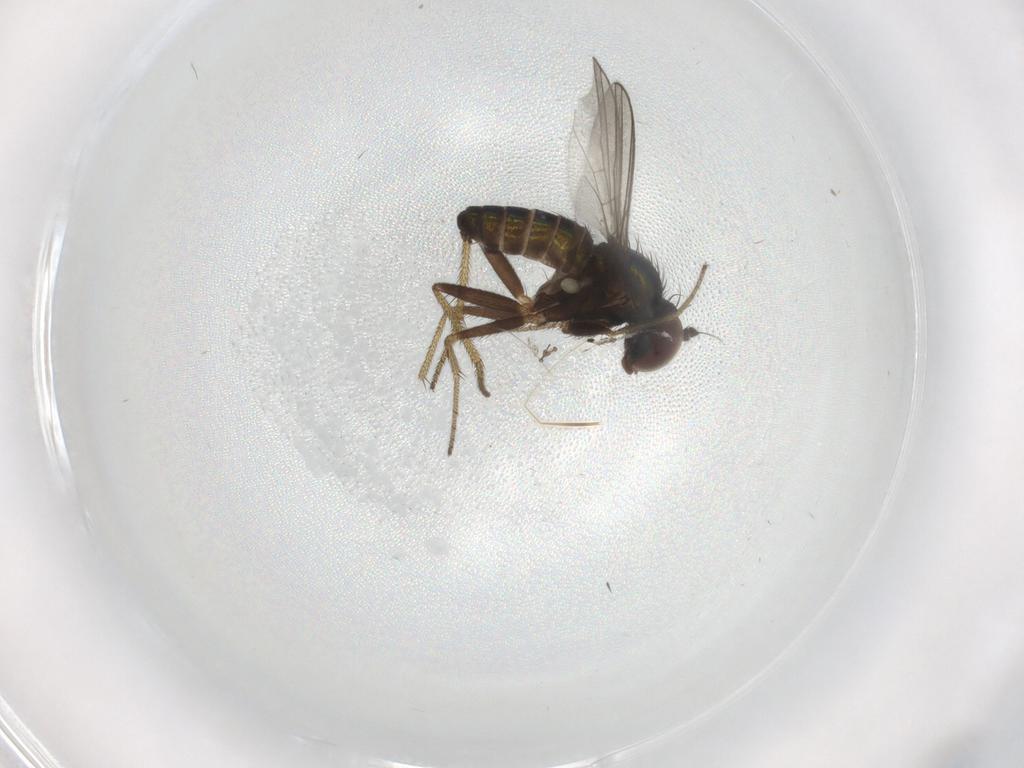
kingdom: Animalia
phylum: Arthropoda
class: Insecta
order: Diptera
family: Dolichopodidae
